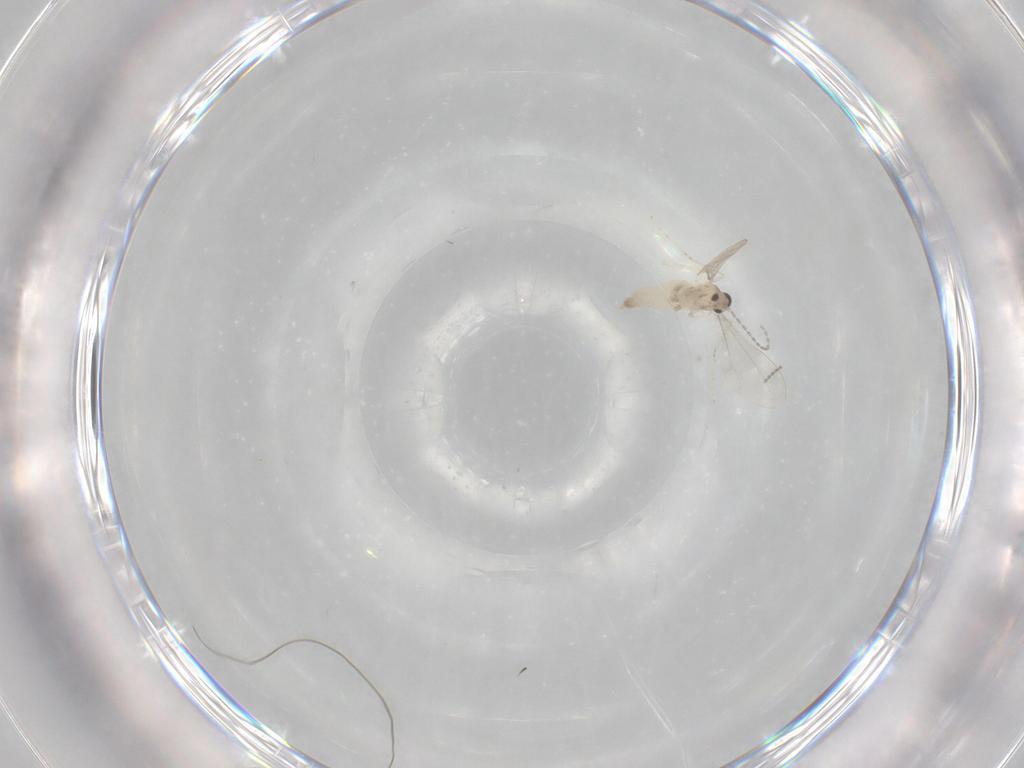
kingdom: Animalia
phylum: Arthropoda
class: Insecta
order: Diptera
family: Cecidomyiidae
